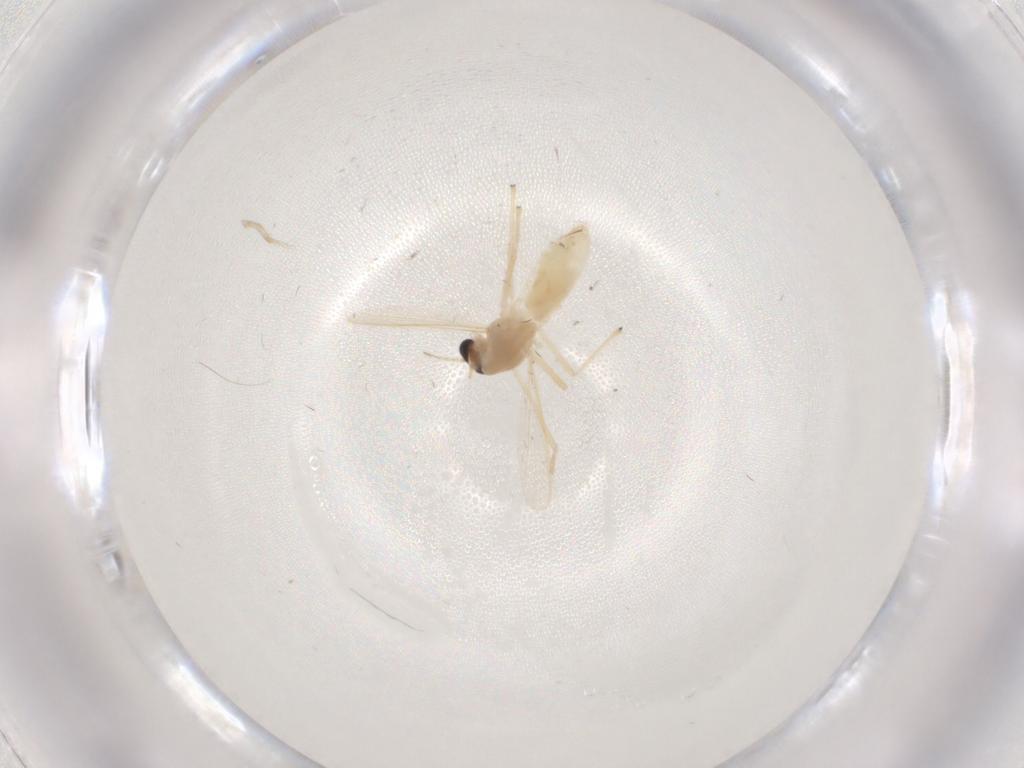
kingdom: Animalia
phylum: Arthropoda
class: Insecta
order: Diptera
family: Chironomidae
